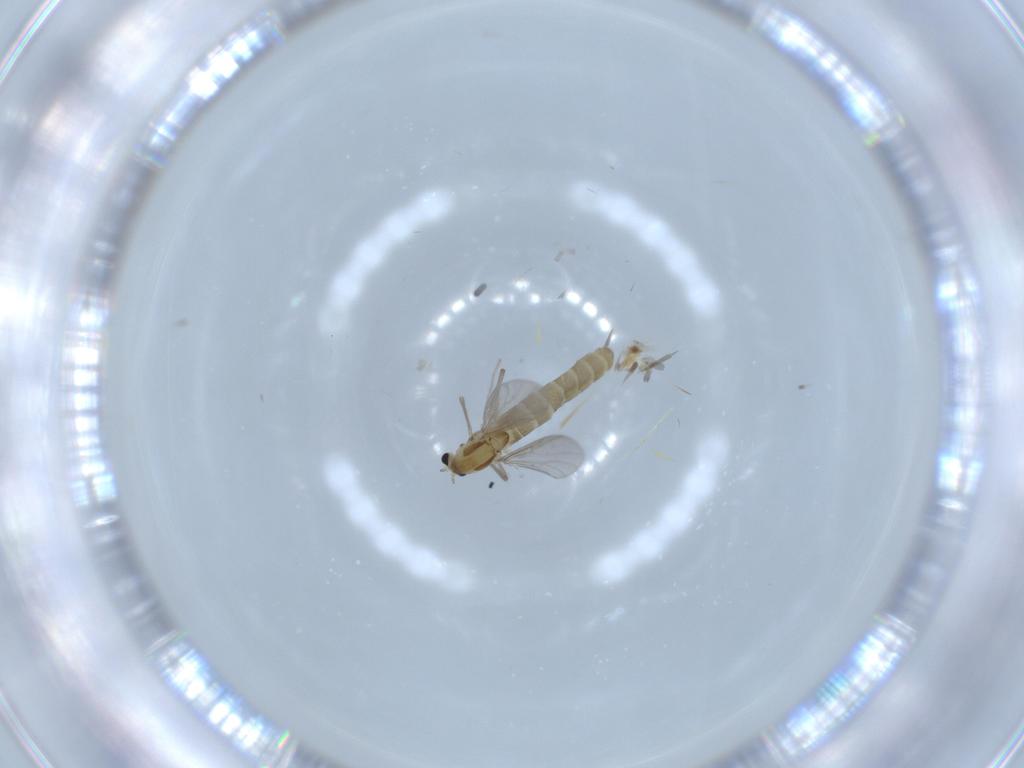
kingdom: Animalia
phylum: Arthropoda
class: Insecta
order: Diptera
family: Chironomidae
